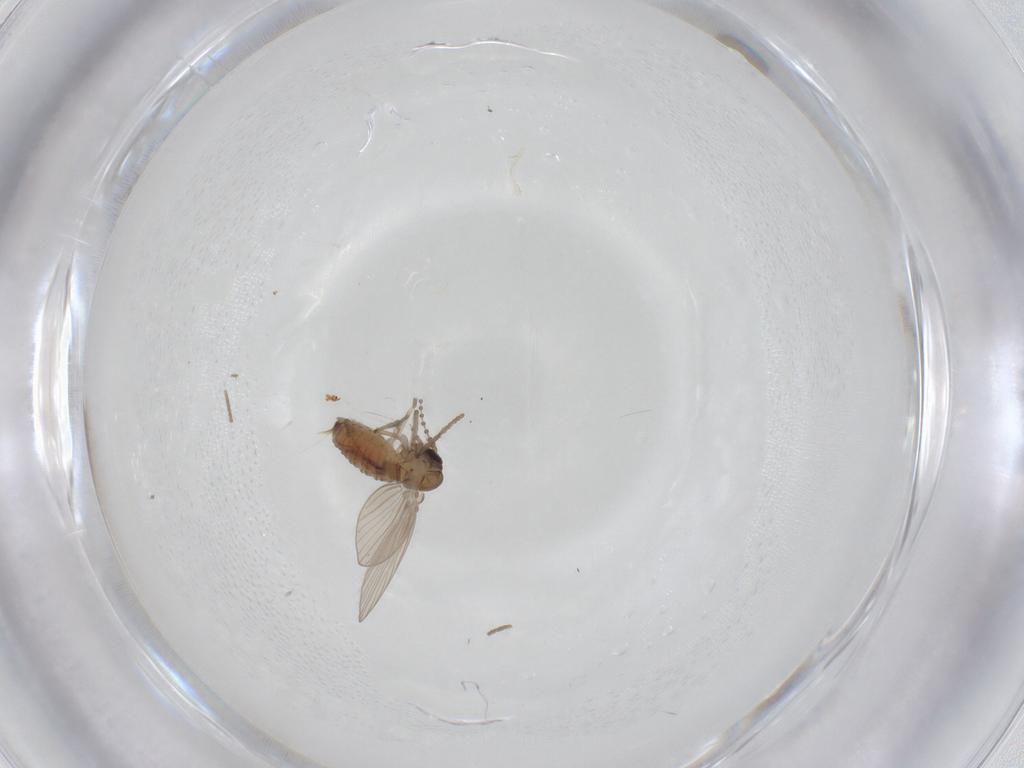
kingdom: Animalia
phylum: Arthropoda
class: Insecta
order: Diptera
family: Psychodidae
